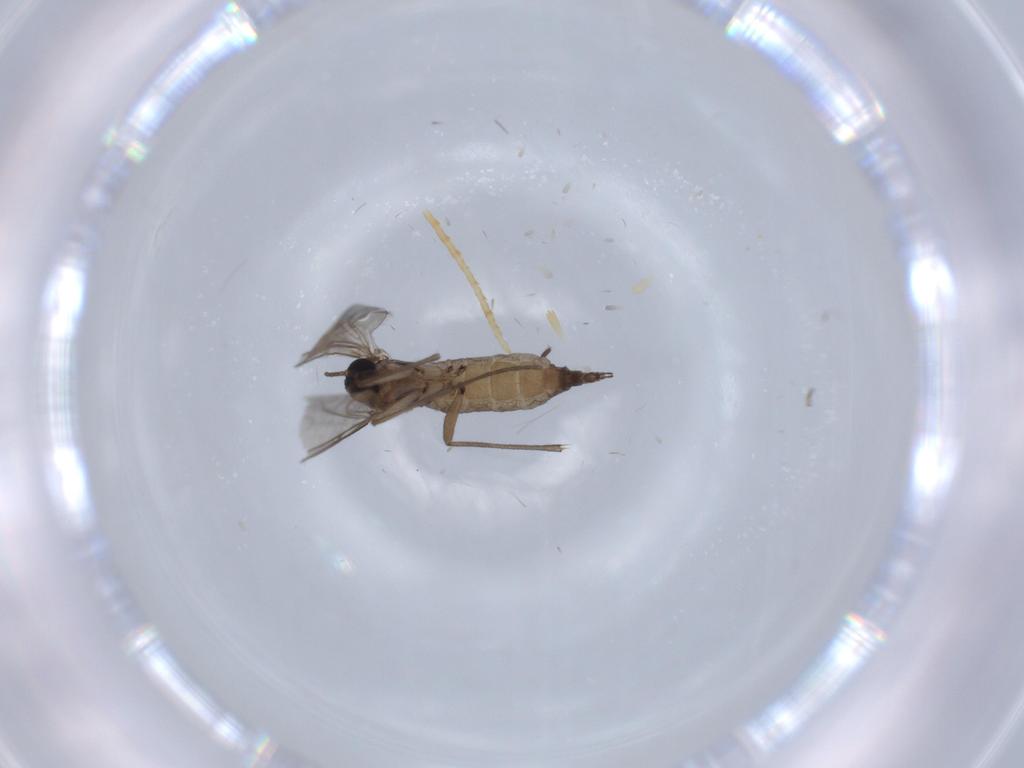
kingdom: Animalia
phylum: Arthropoda
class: Insecta
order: Diptera
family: Sciaridae
